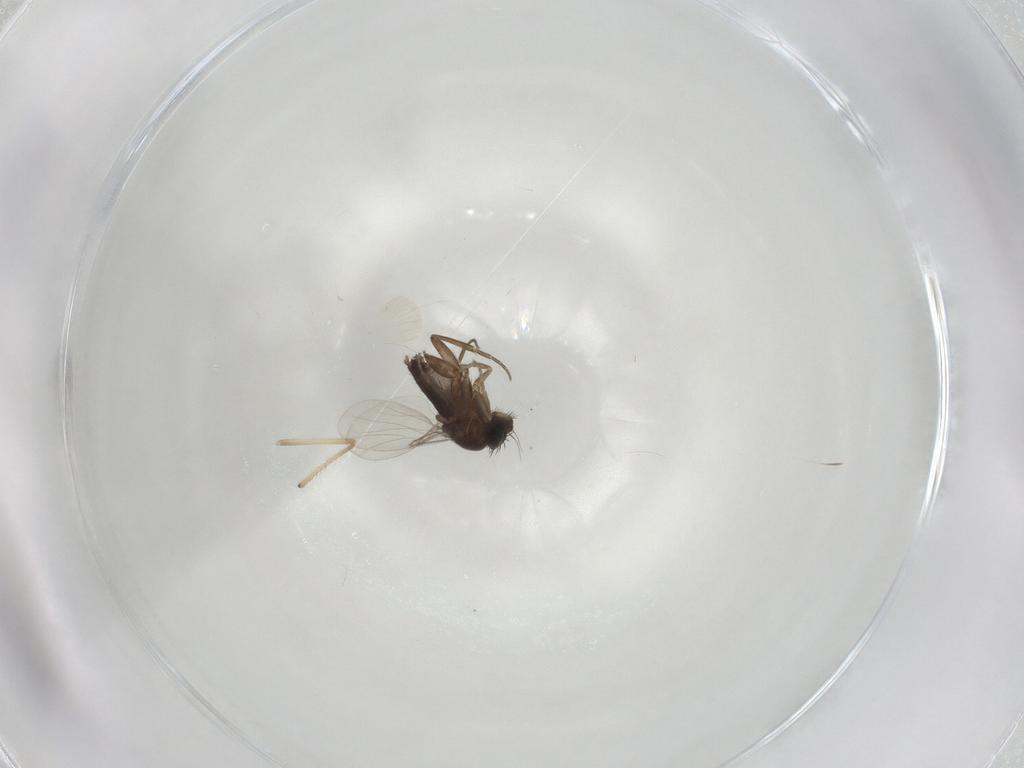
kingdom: Animalia
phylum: Arthropoda
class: Insecta
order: Diptera
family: Phoridae
